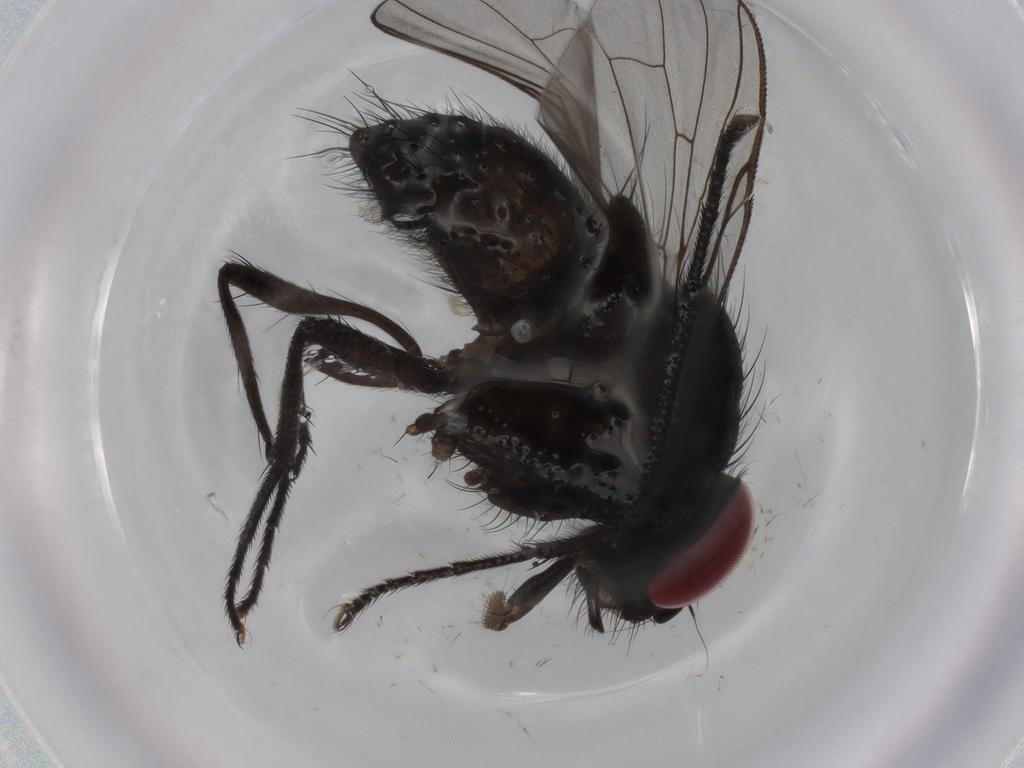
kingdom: Animalia
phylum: Arthropoda
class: Insecta
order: Diptera
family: Muscidae
